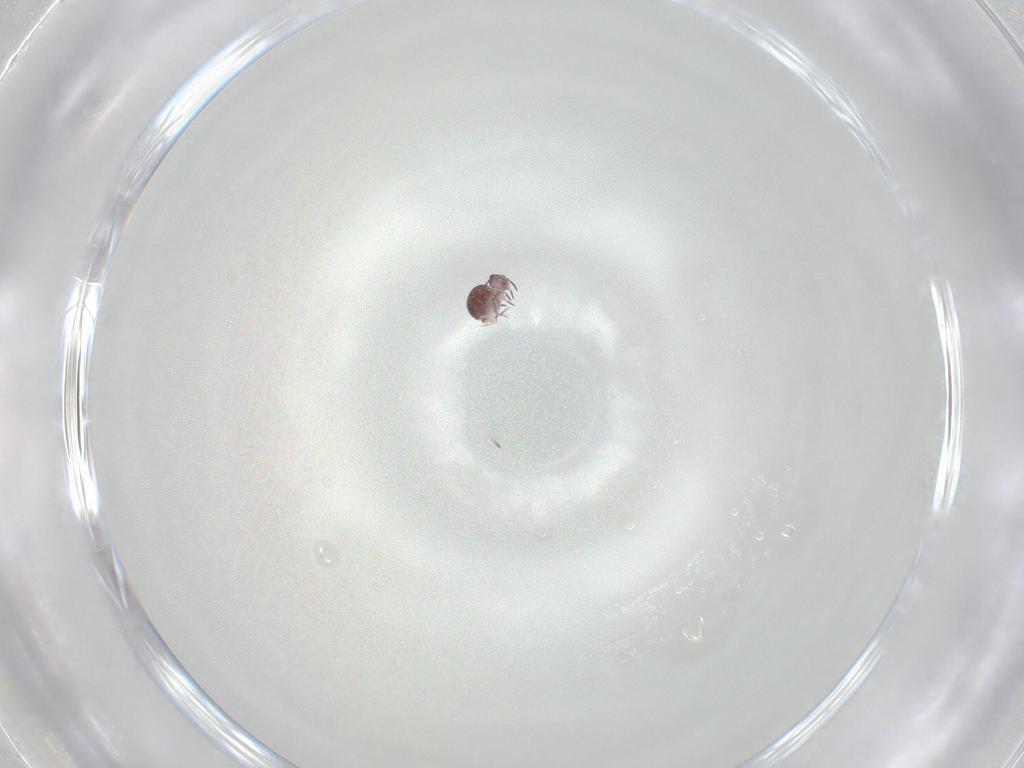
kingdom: Animalia
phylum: Arthropoda
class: Collembola
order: Symphypleona
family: Sminthurididae
